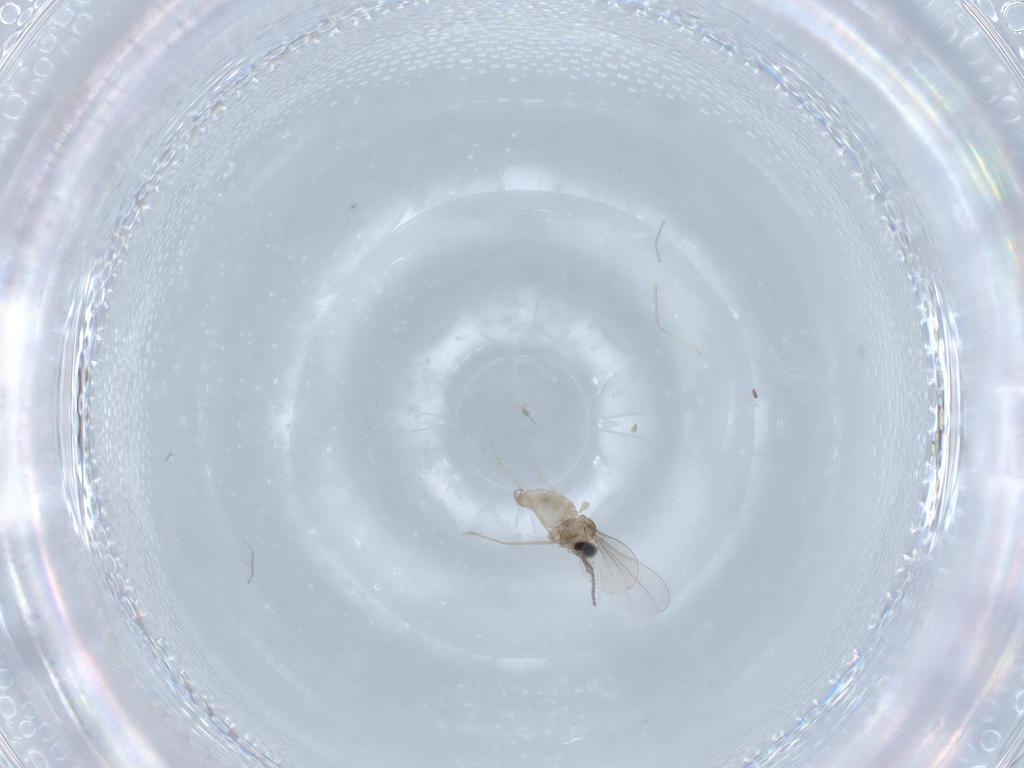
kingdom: Animalia
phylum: Arthropoda
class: Insecta
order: Diptera
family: Cecidomyiidae
